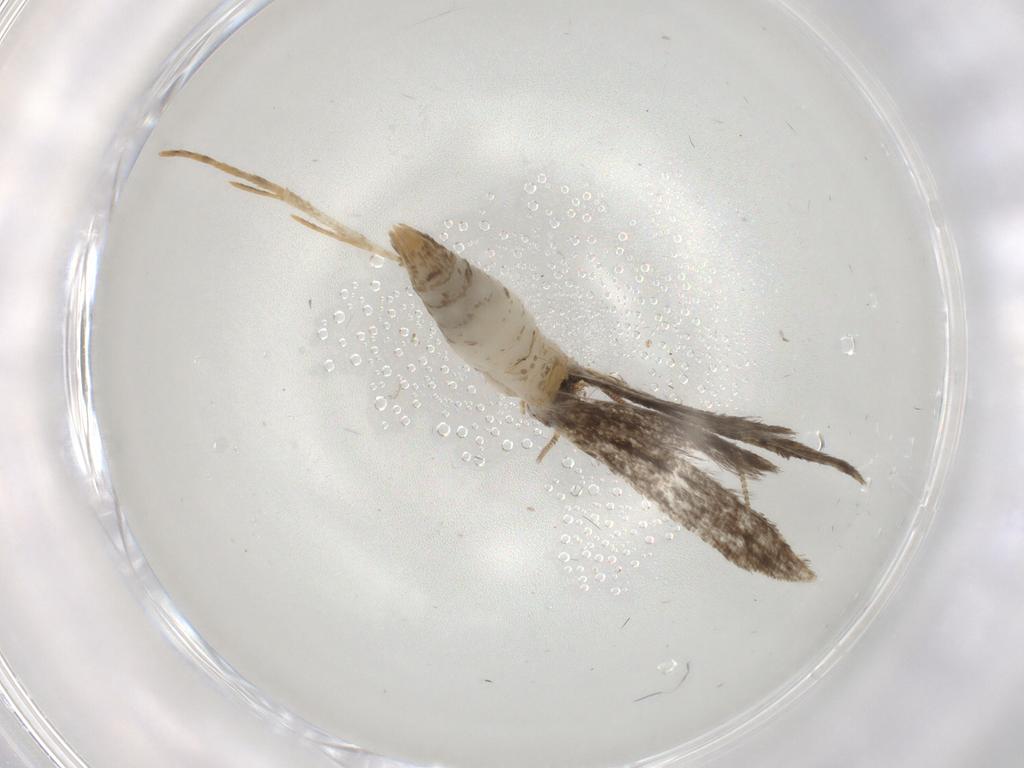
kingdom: Animalia
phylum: Arthropoda
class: Insecta
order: Lepidoptera
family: Tineidae
